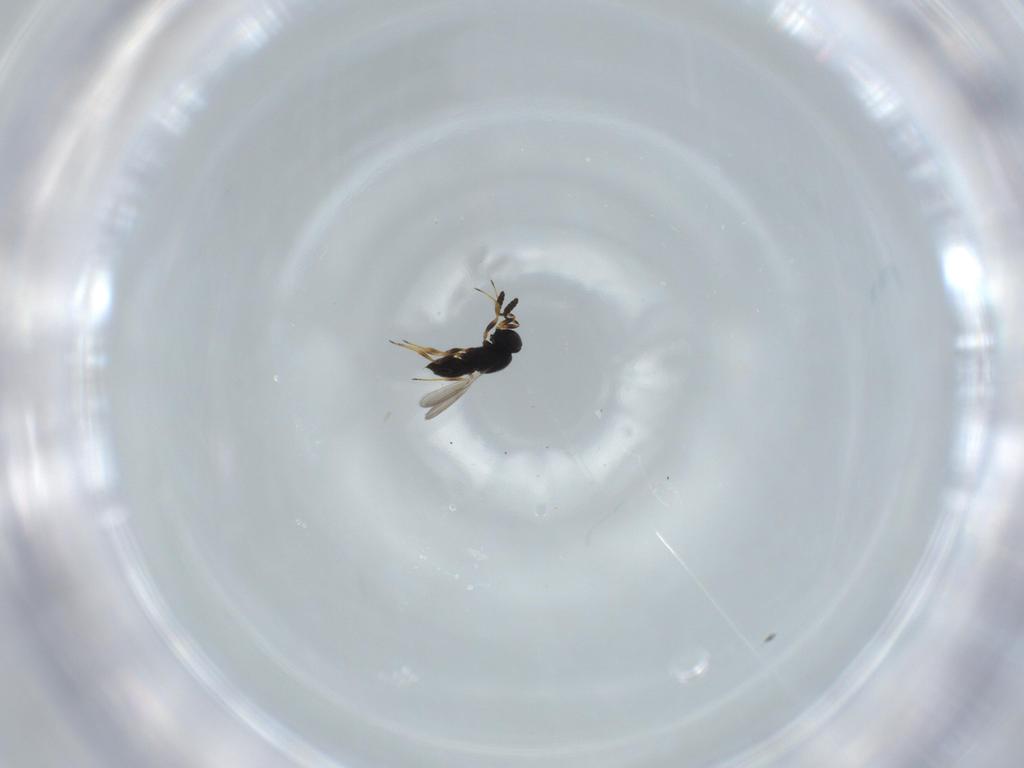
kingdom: Animalia
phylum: Arthropoda
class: Insecta
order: Hymenoptera
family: Scelionidae
